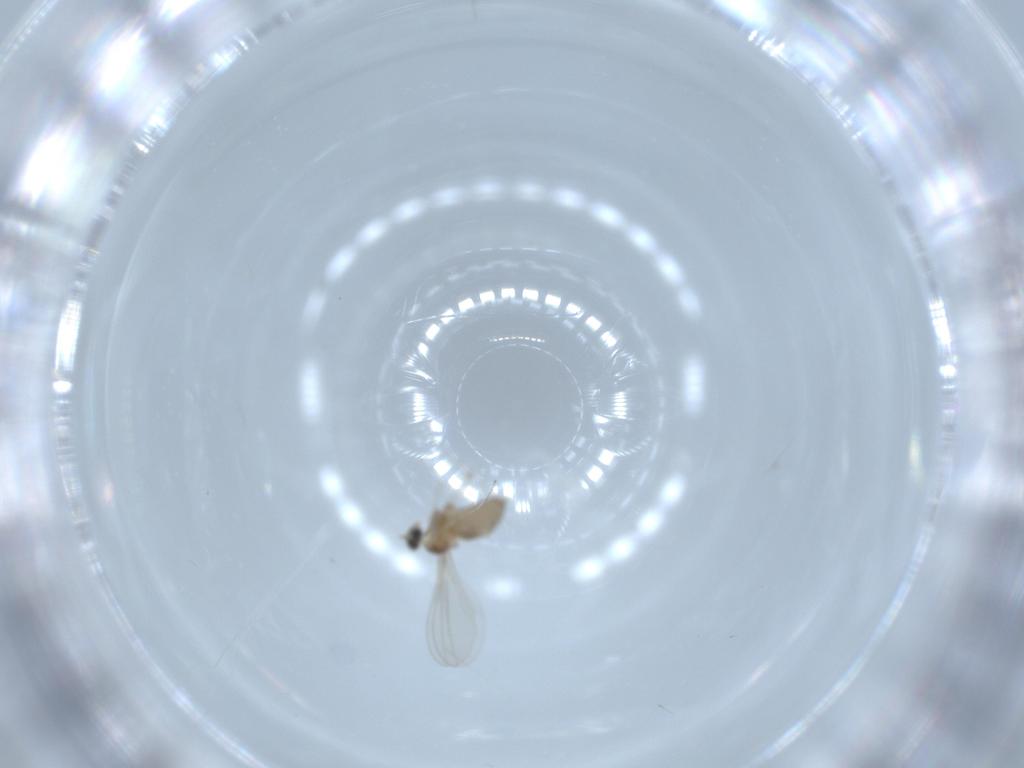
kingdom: Animalia
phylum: Arthropoda
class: Insecta
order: Diptera
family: Cecidomyiidae
